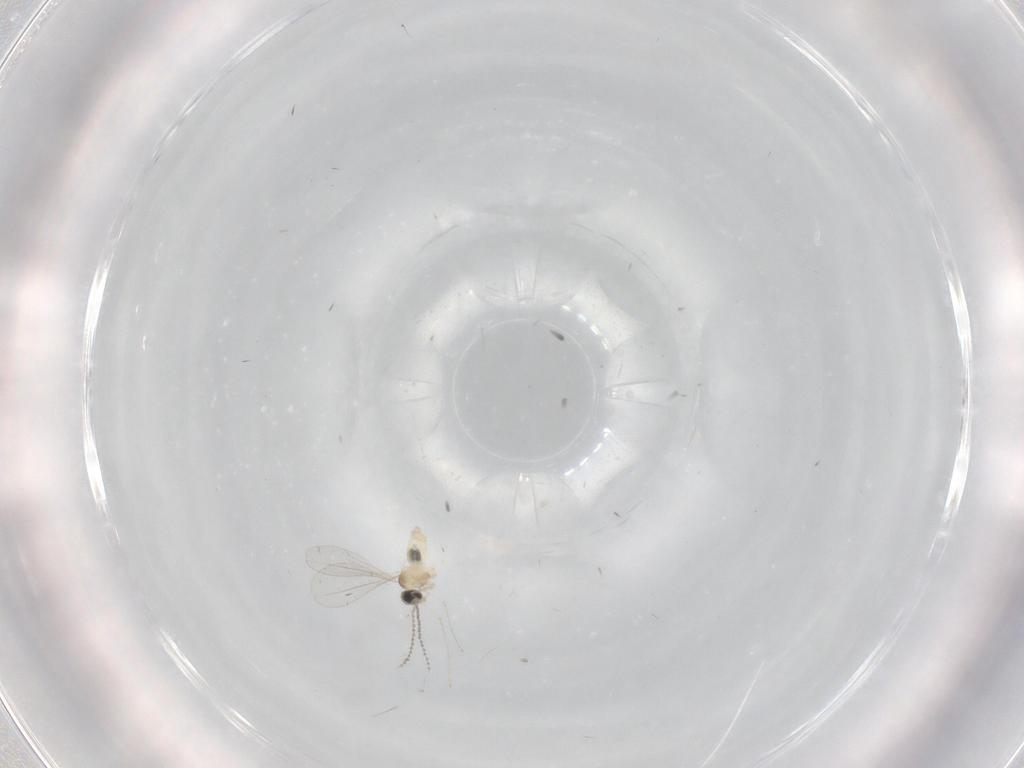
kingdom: Animalia
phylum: Arthropoda
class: Insecta
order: Diptera
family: Cecidomyiidae
